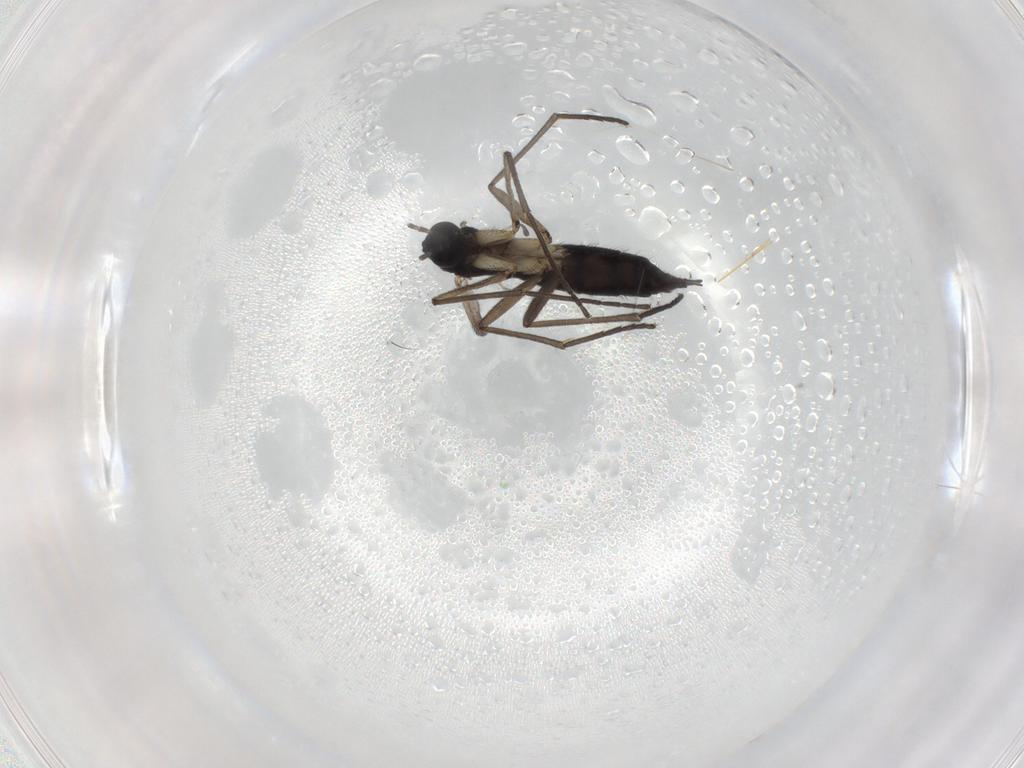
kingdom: Animalia
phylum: Arthropoda
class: Insecta
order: Diptera
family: Sciaridae
